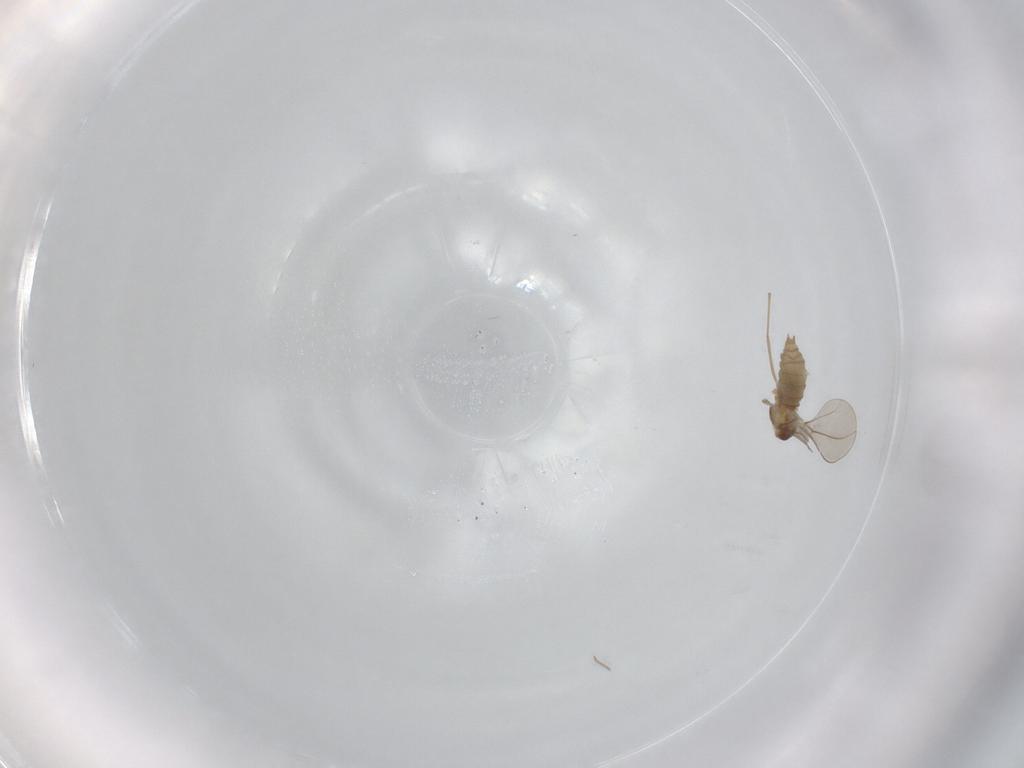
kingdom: Animalia
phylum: Arthropoda
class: Insecta
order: Diptera
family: Cecidomyiidae
